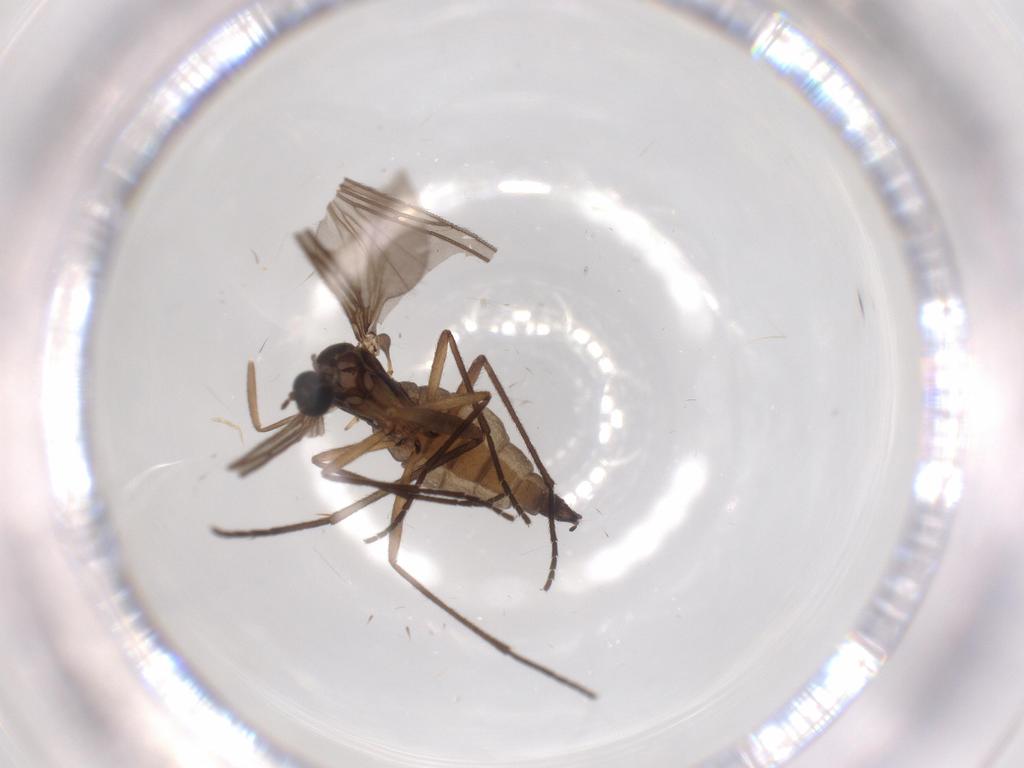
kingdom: Animalia
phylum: Arthropoda
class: Insecta
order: Diptera
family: Sciaridae
